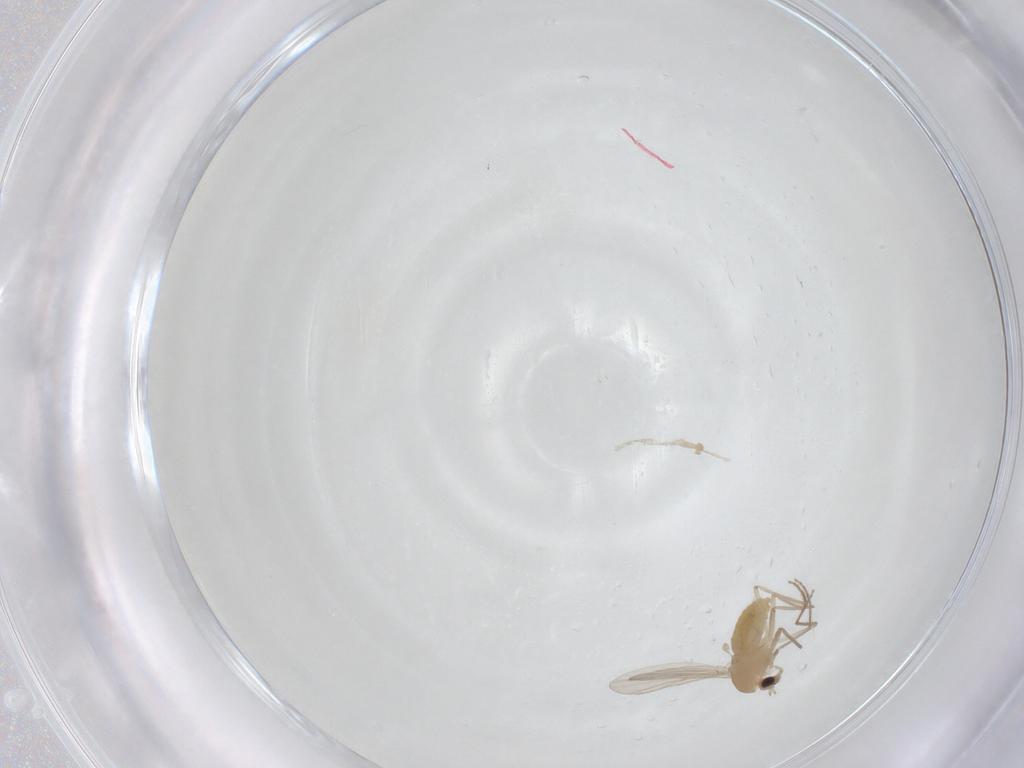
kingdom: Animalia
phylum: Arthropoda
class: Insecta
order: Diptera
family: Chironomidae
